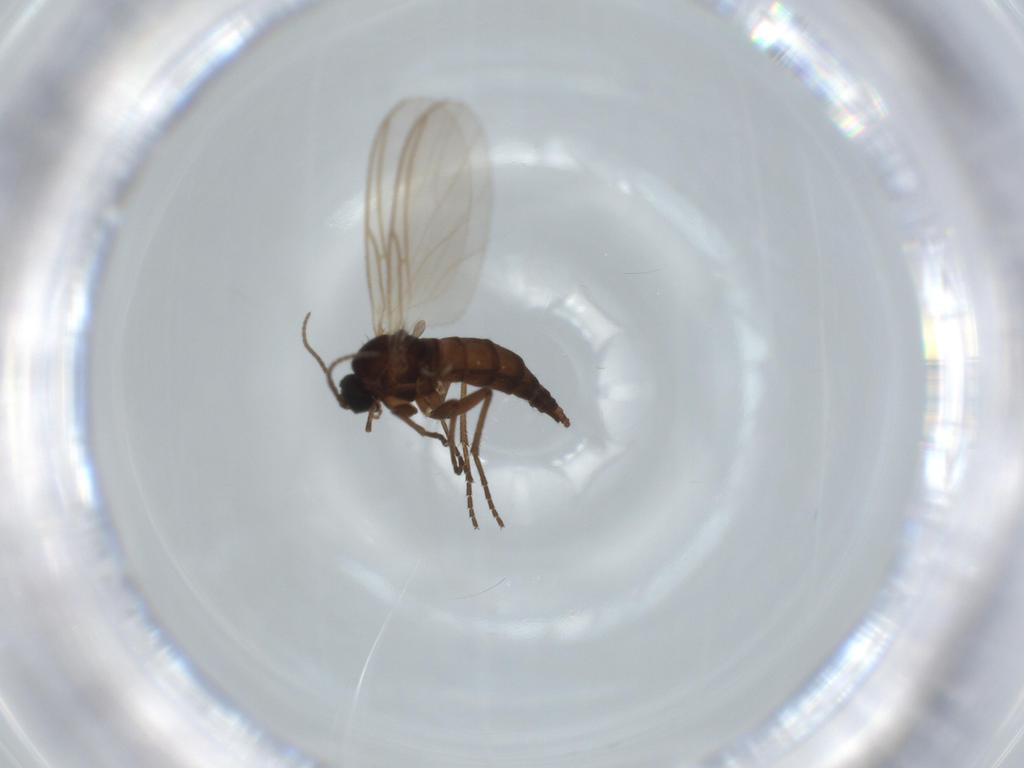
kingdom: Animalia
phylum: Arthropoda
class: Insecta
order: Diptera
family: Sciaridae
